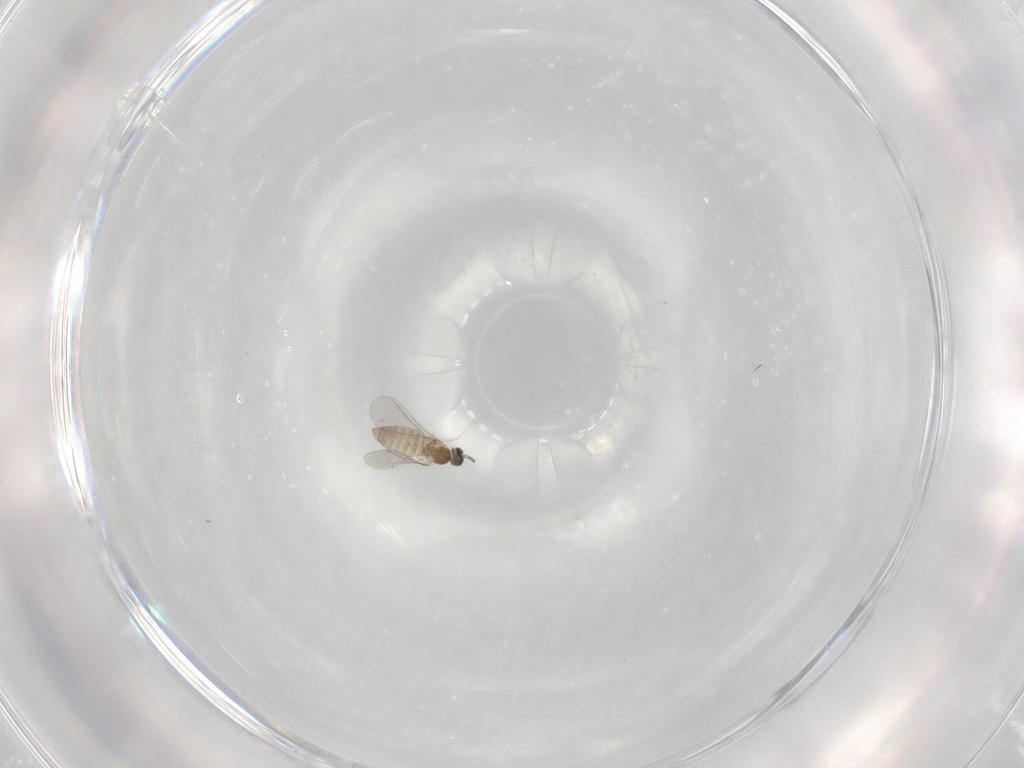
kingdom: Animalia
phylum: Arthropoda
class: Insecta
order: Diptera
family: Cecidomyiidae
